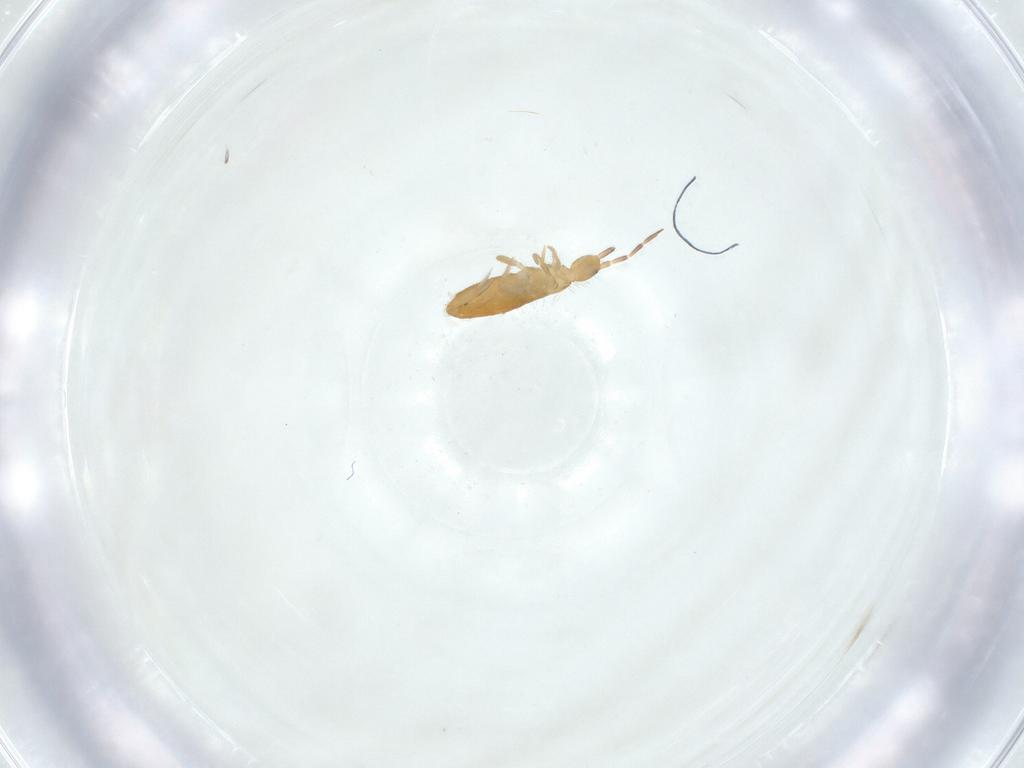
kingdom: Animalia
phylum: Arthropoda
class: Collembola
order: Entomobryomorpha
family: Entomobryidae
